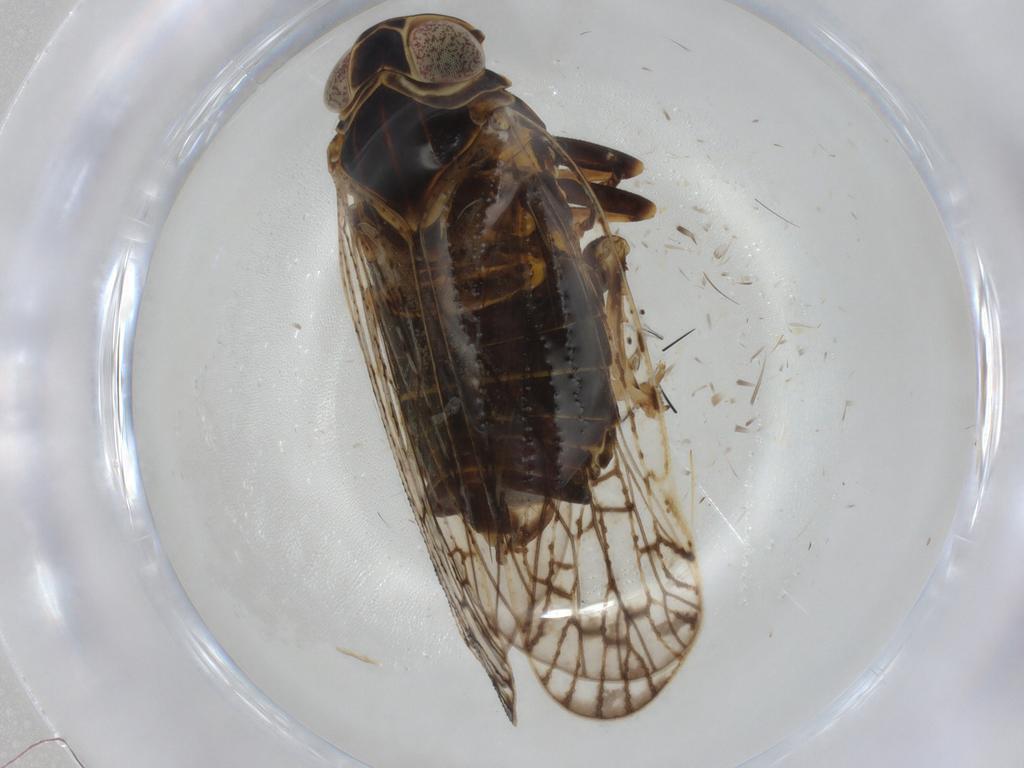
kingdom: Animalia
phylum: Arthropoda
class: Insecta
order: Hemiptera
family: Cixiidae
